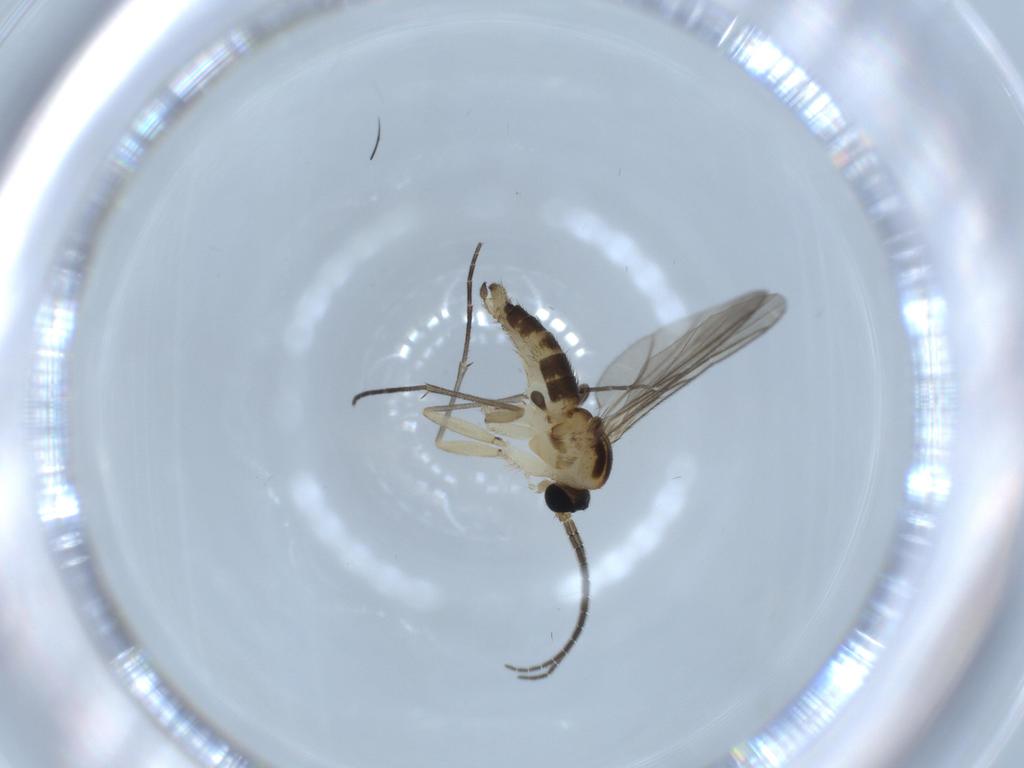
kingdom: Animalia
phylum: Arthropoda
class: Insecta
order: Diptera
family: Sciaridae
